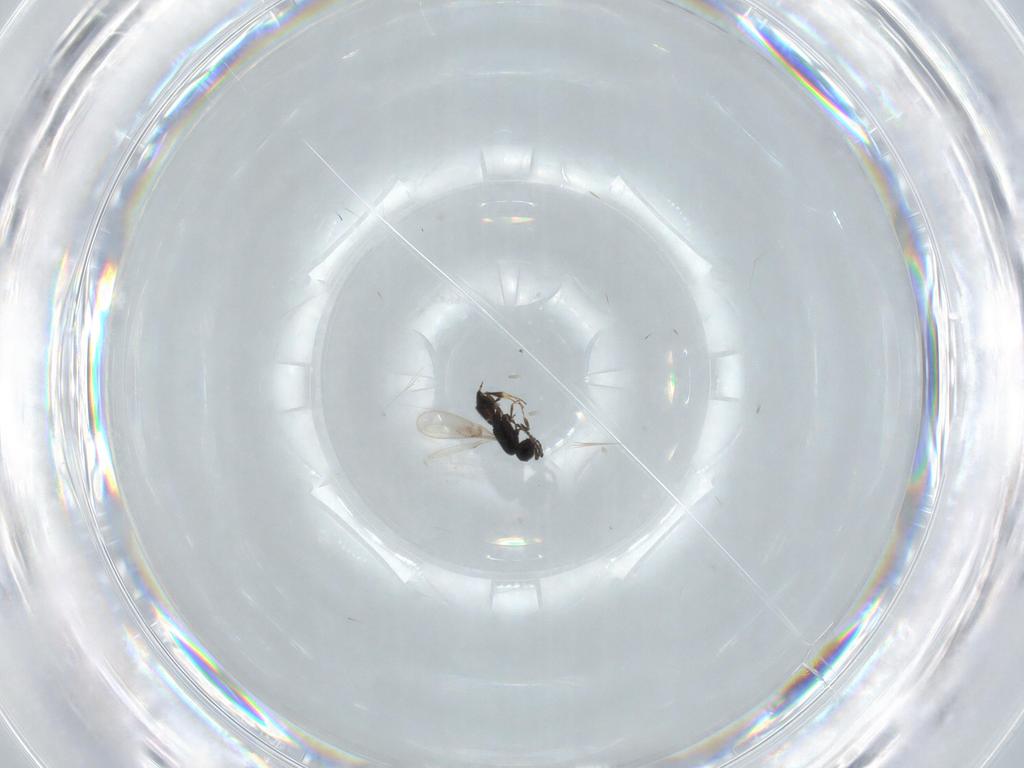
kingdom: Animalia
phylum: Arthropoda
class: Insecta
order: Hymenoptera
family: Scelionidae
